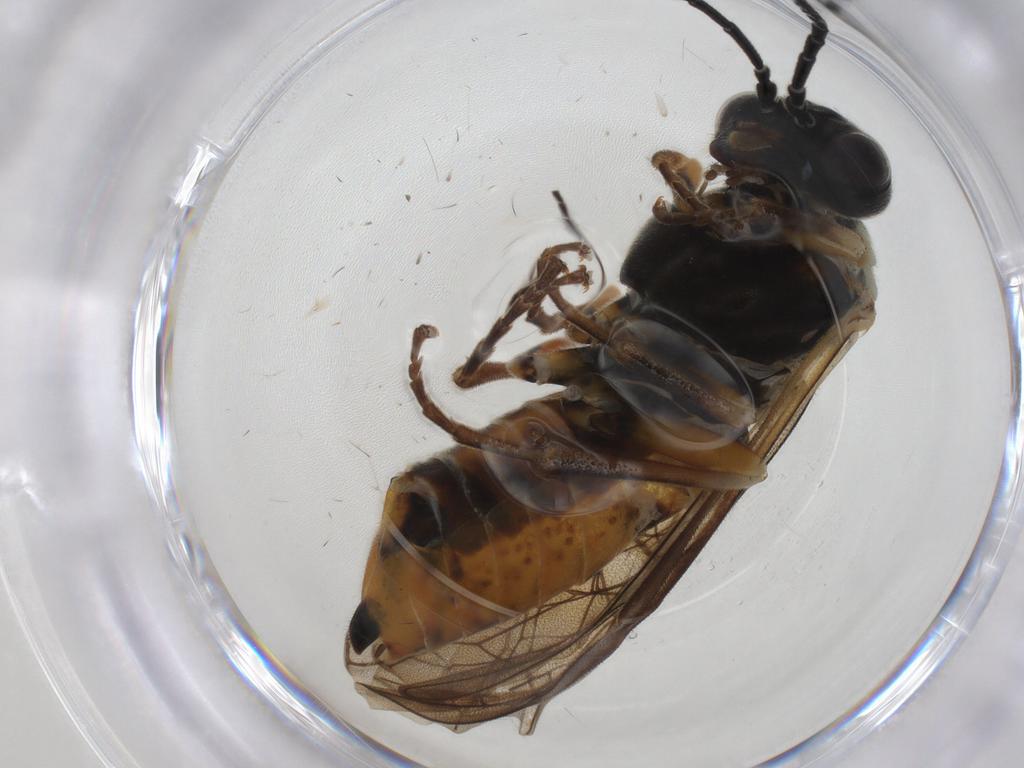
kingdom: Animalia
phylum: Arthropoda
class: Insecta
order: Hymenoptera
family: Tenthredinidae
